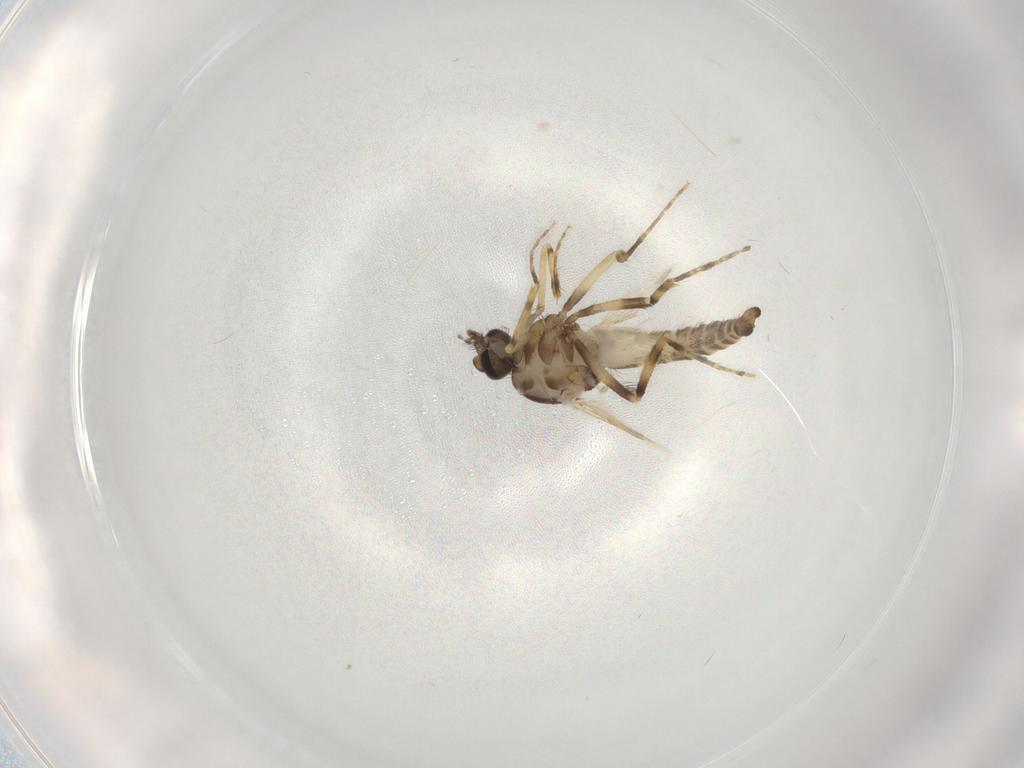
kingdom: Animalia
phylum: Arthropoda
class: Insecta
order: Diptera
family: Ceratopogonidae
